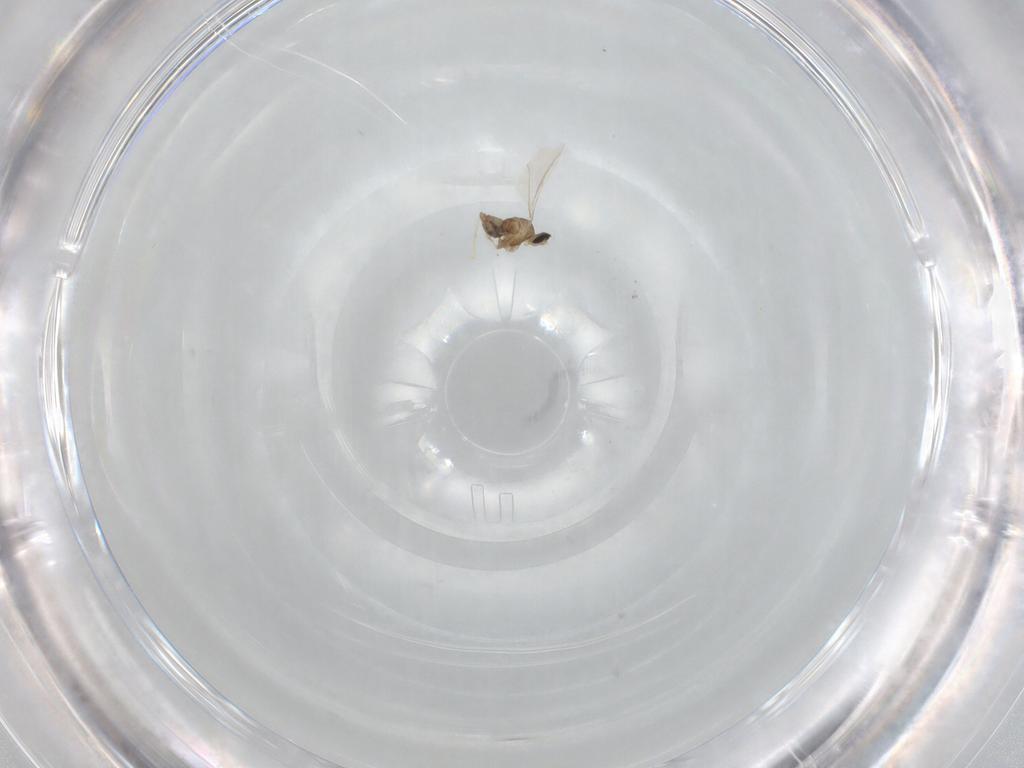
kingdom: Animalia
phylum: Arthropoda
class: Insecta
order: Diptera
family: Cecidomyiidae
